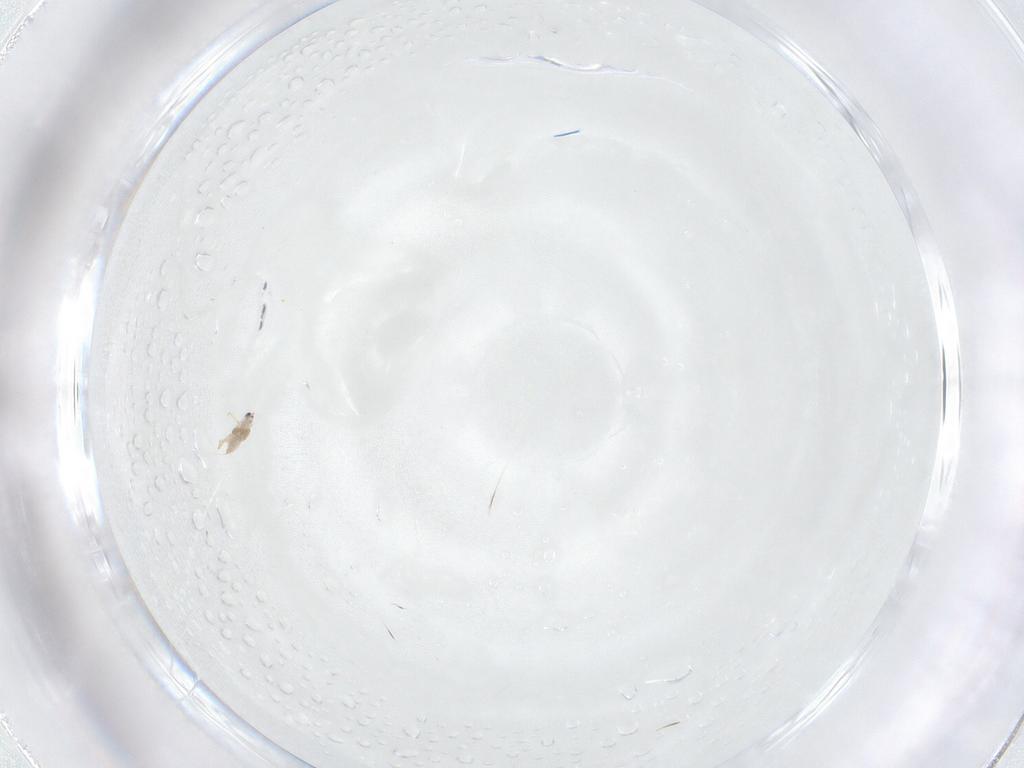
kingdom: Animalia
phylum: Arthropoda
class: Insecta
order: Hemiptera
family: Diaspididae
